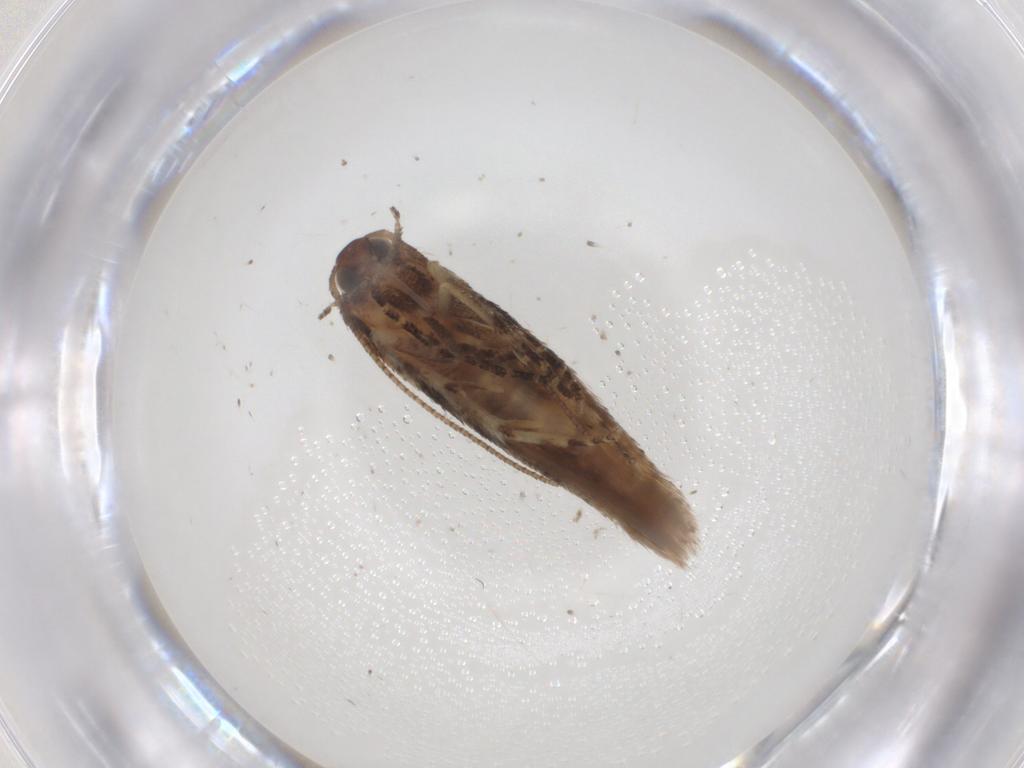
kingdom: Animalia
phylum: Arthropoda
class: Insecta
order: Lepidoptera
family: Gelechiidae
